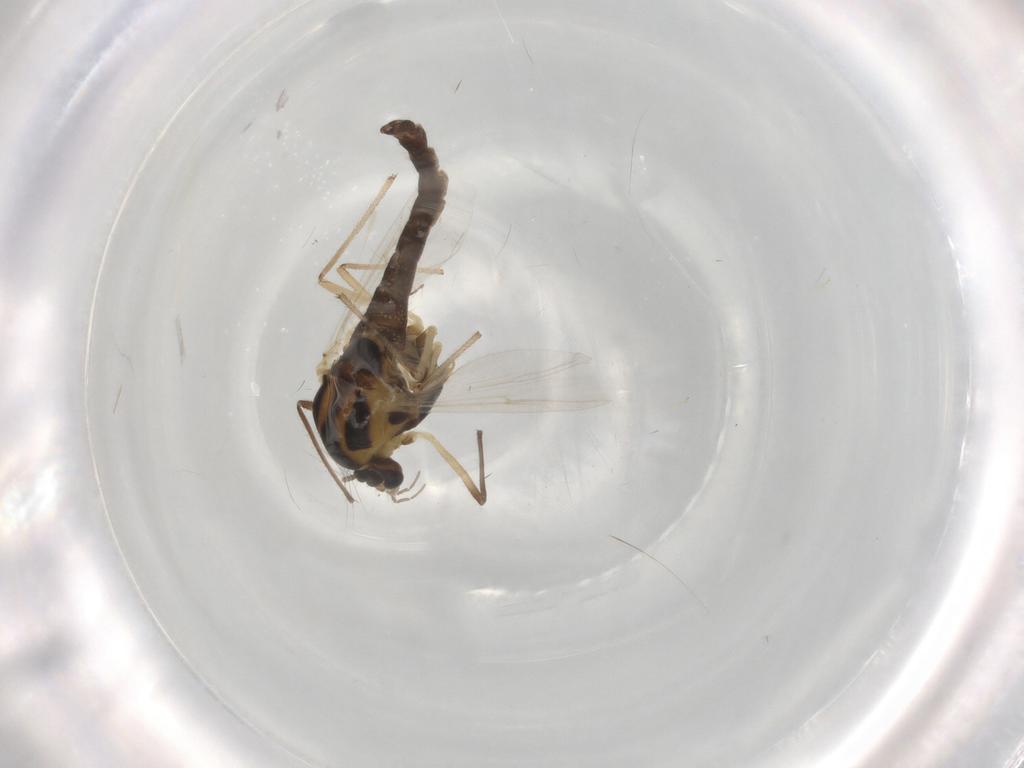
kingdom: Animalia
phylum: Arthropoda
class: Insecta
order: Diptera
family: Chironomidae
